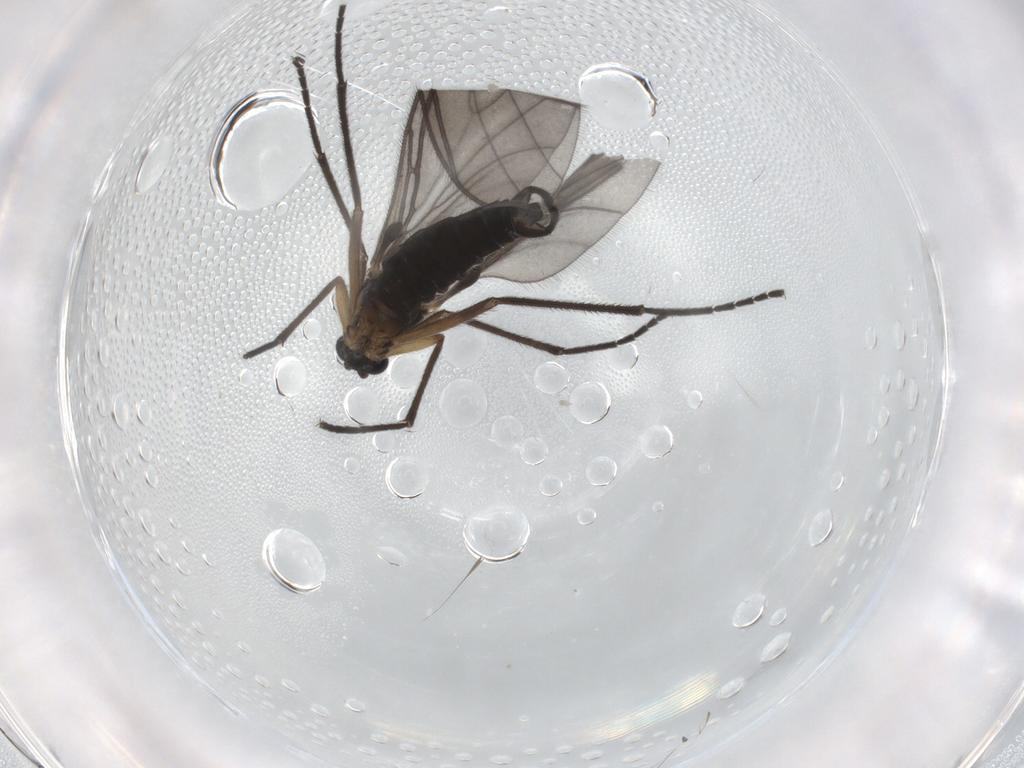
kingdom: Animalia
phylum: Arthropoda
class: Insecta
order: Diptera
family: Sciaridae
